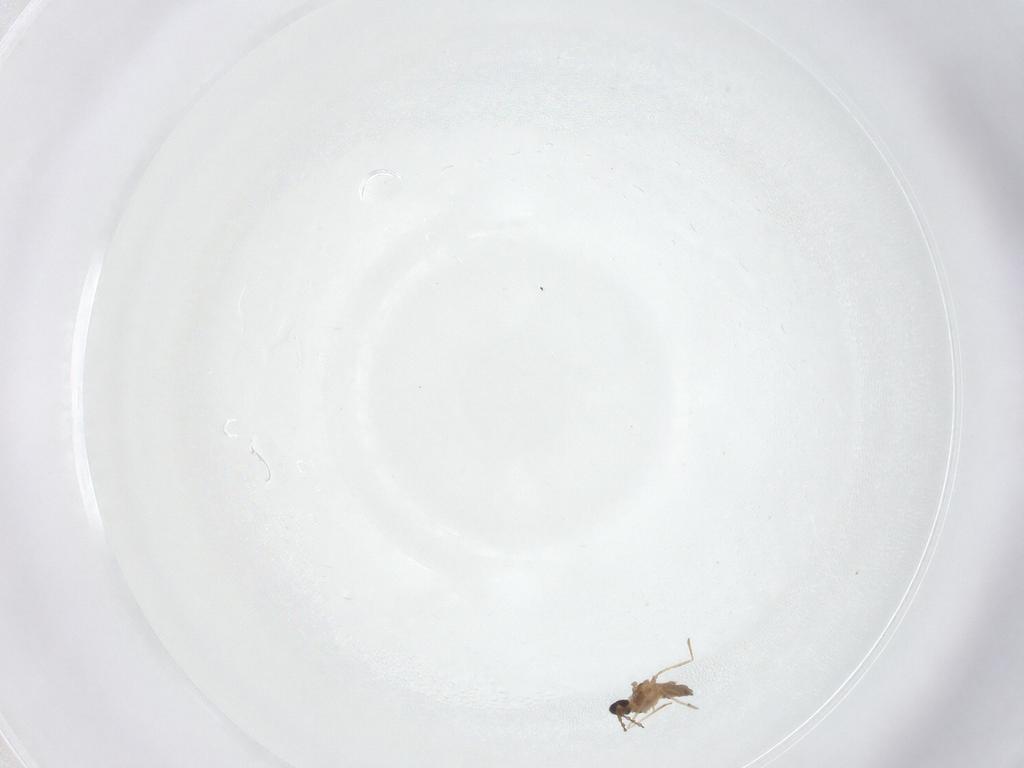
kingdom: Animalia
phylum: Arthropoda
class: Insecta
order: Diptera
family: Cecidomyiidae
